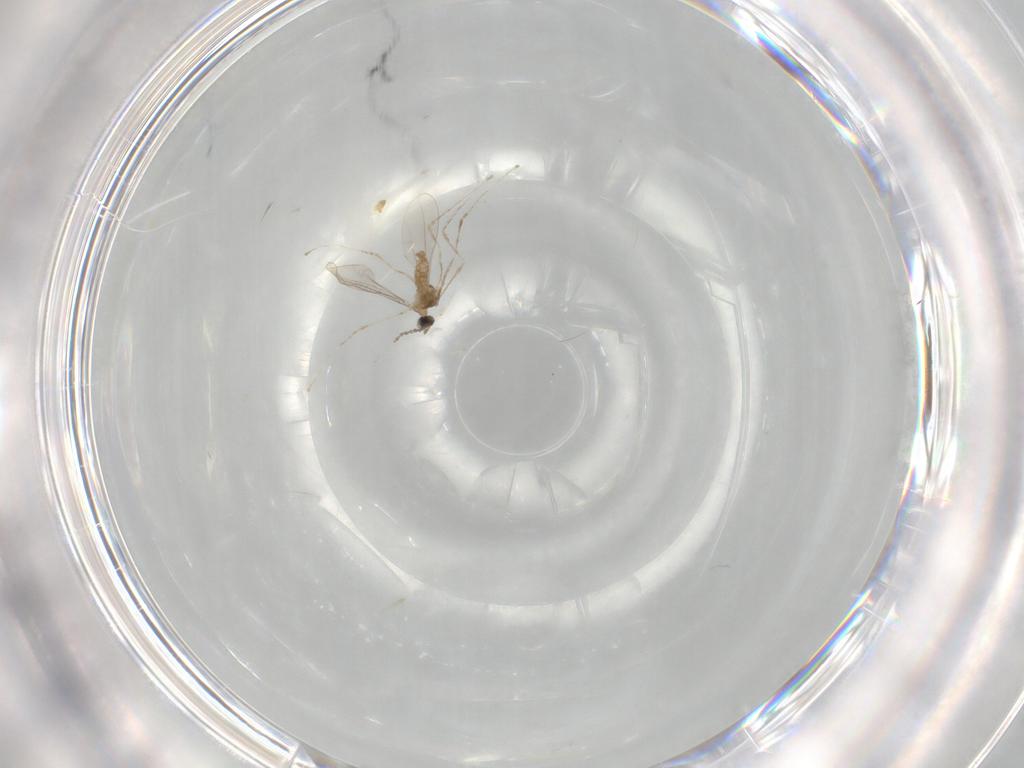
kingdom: Animalia
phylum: Arthropoda
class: Insecta
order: Diptera
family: Cecidomyiidae
